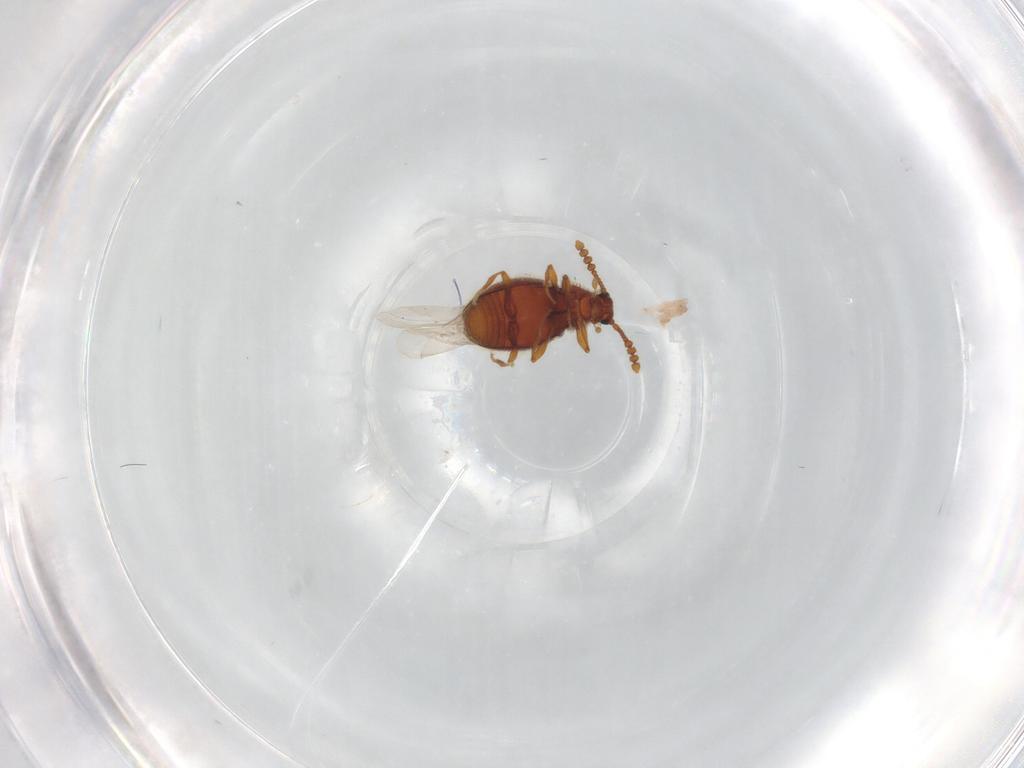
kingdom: Animalia
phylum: Arthropoda
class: Insecta
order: Coleoptera
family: Staphylinidae
